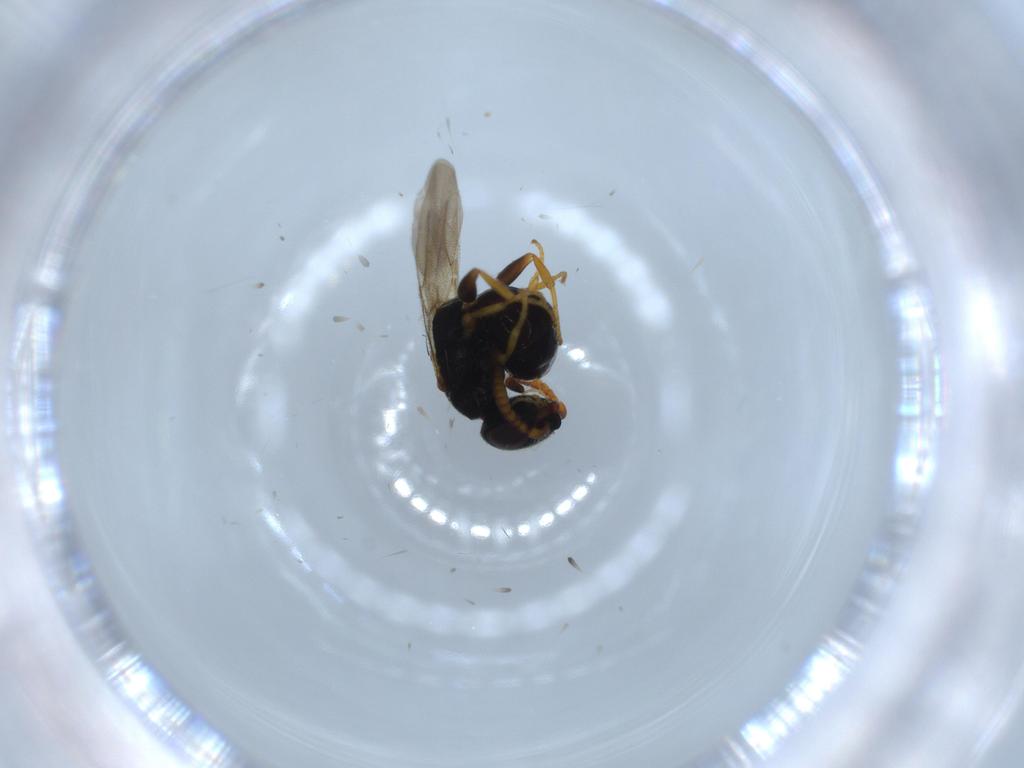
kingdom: Animalia
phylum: Arthropoda
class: Insecta
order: Hymenoptera
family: Bethylidae
